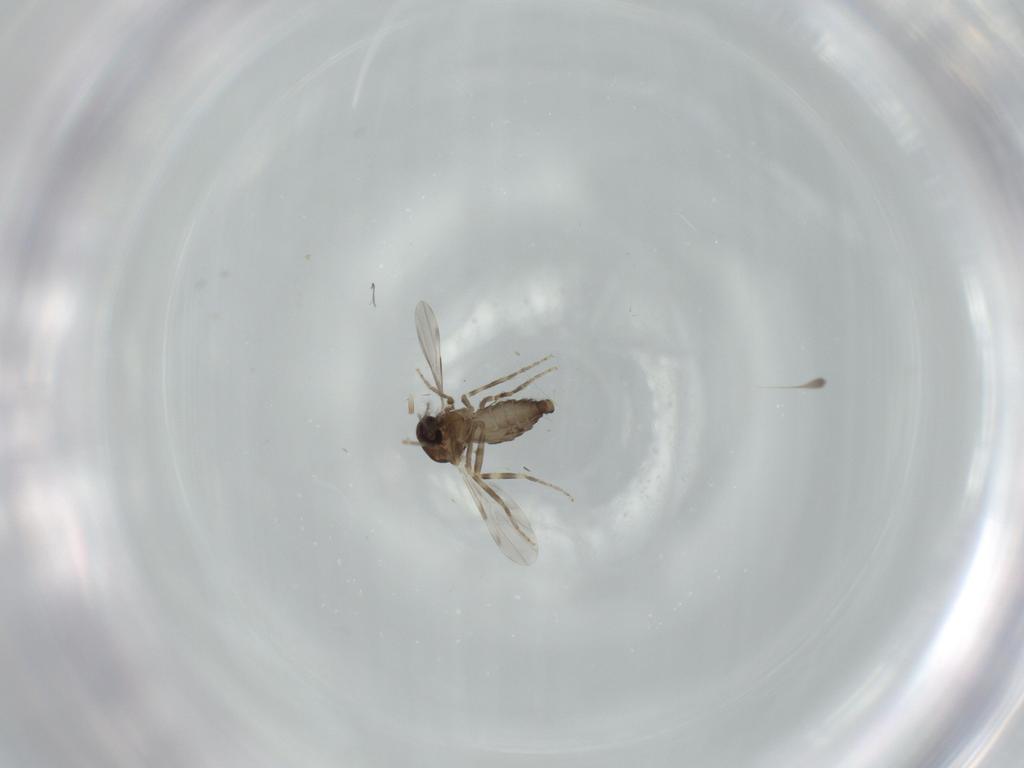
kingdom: Animalia
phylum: Arthropoda
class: Insecta
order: Diptera
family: Ceratopogonidae
